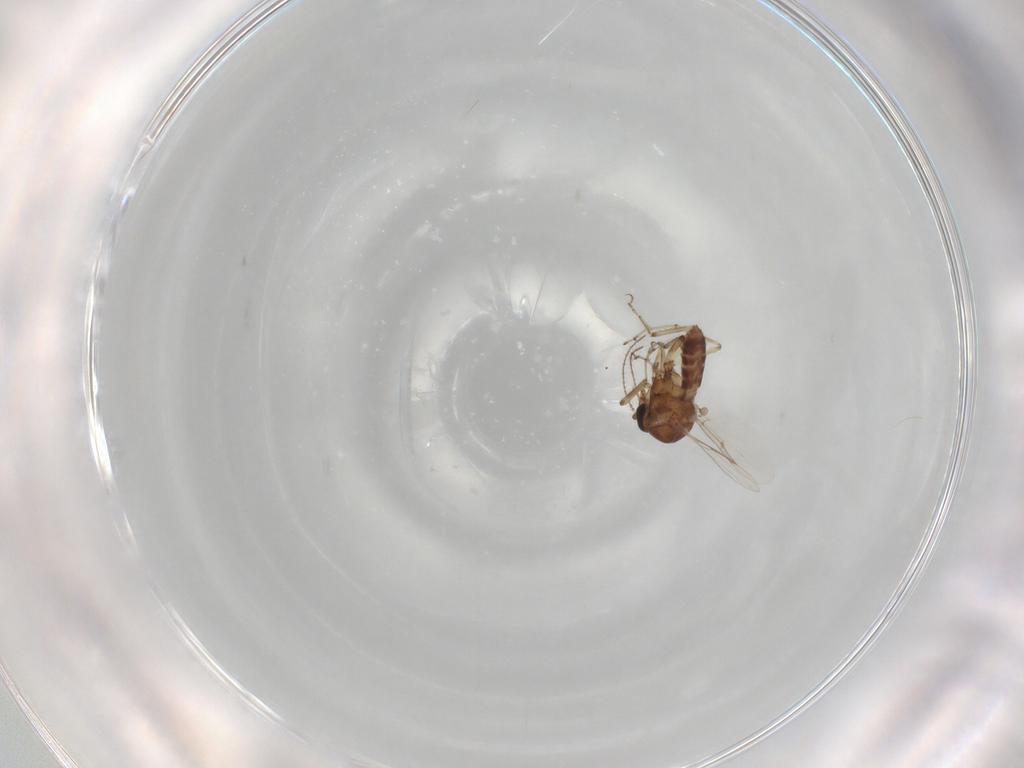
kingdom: Animalia
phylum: Arthropoda
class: Insecta
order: Diptera
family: Ceratopogonidae
